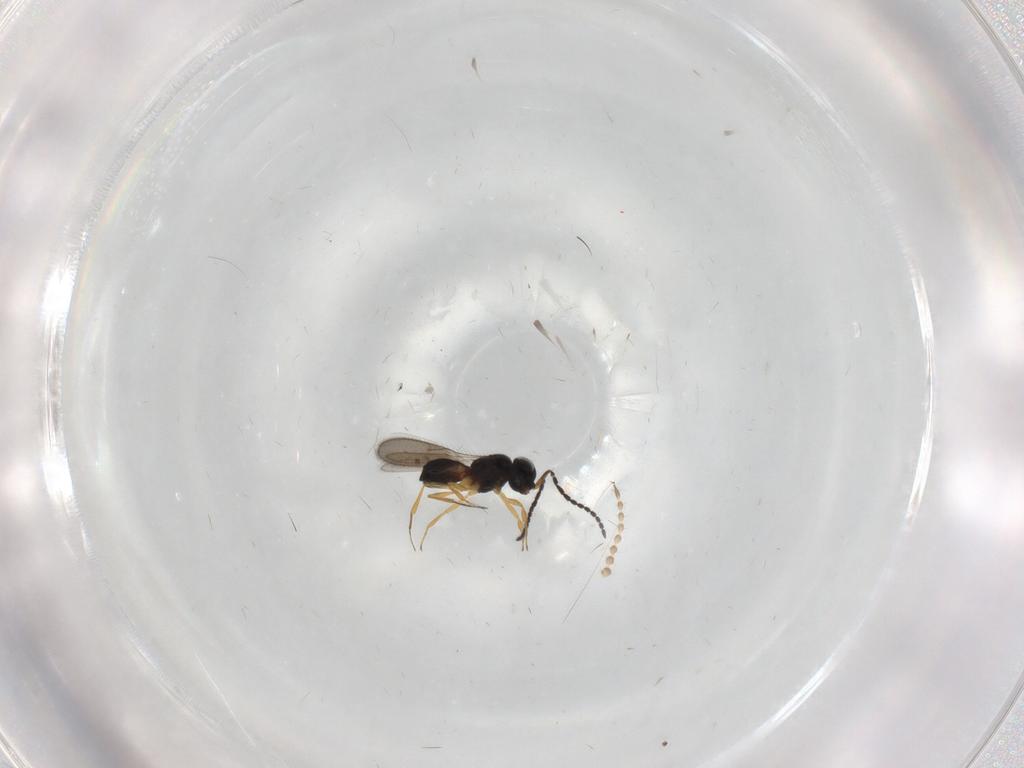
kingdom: Animalia
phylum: Arthropoda
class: Insecta
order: Hymenoptera
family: Scelionidae
